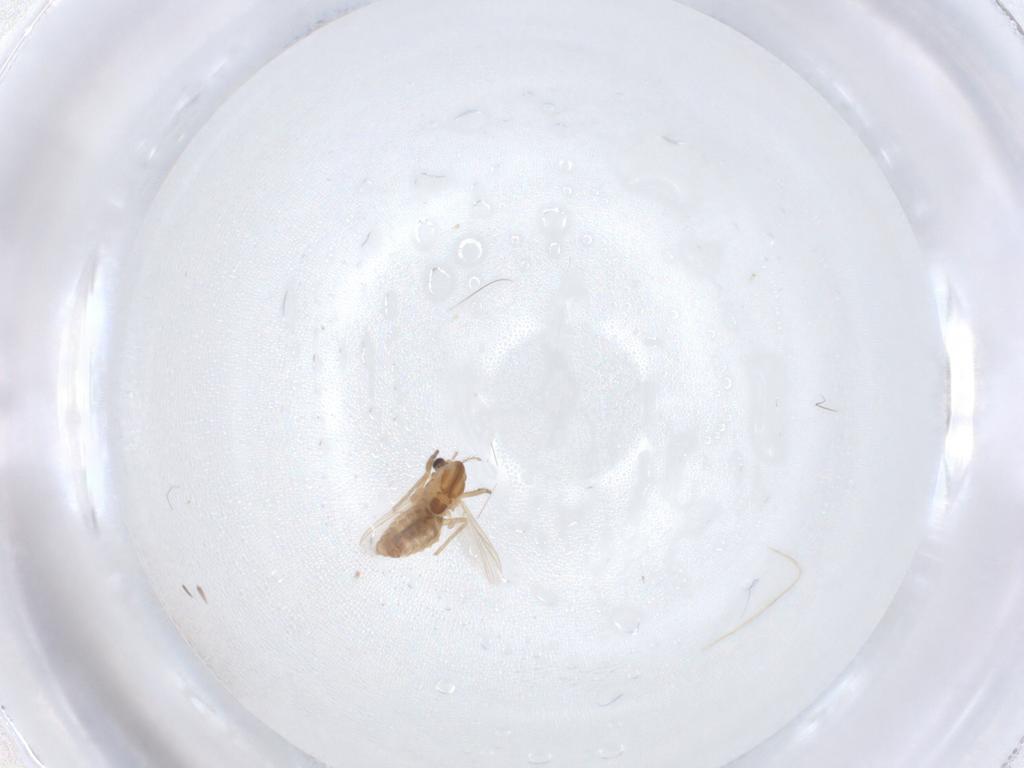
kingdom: Animalia
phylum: Arthropoda
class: Insecta
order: Diptera
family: Chironomidae
